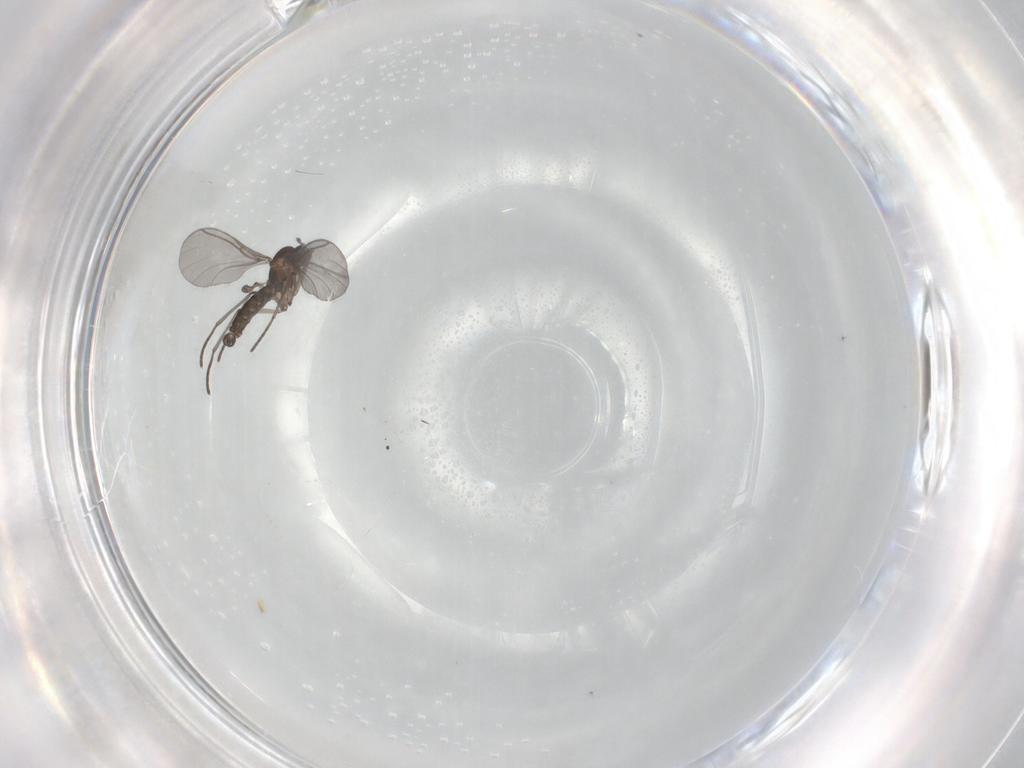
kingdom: Animalia
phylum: Arthropoda
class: Insecta
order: Diptera
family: Sciaridae
